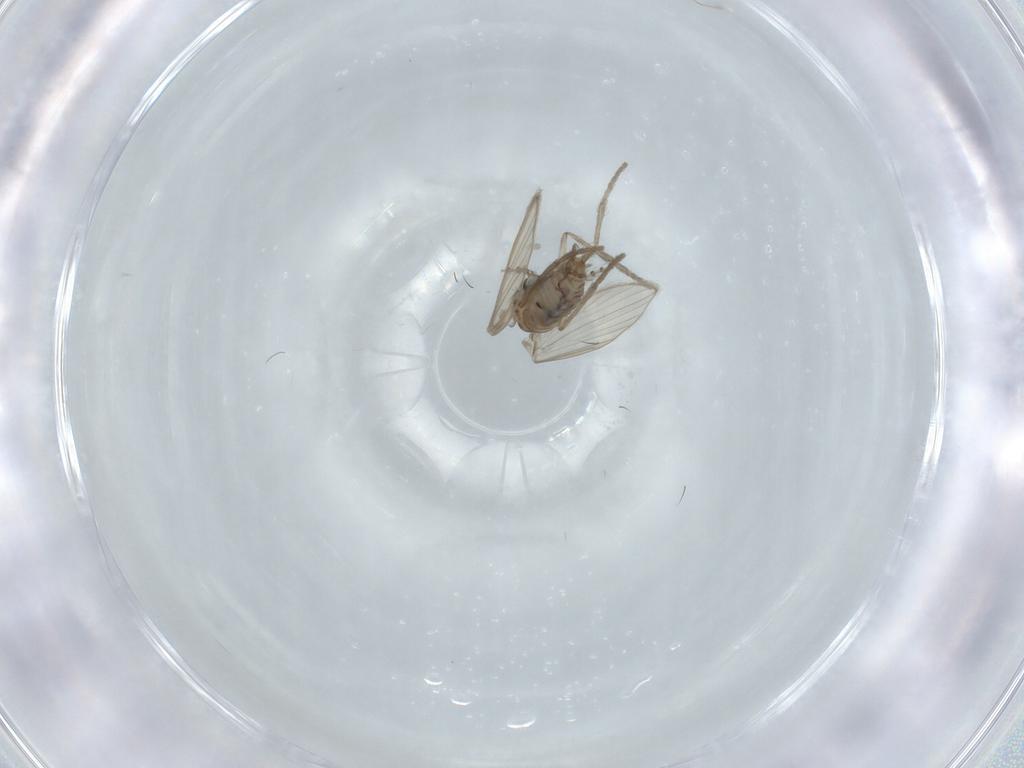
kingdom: Animalia
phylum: Arthropoda
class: Insecta
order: Diptera
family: Psychodidae
